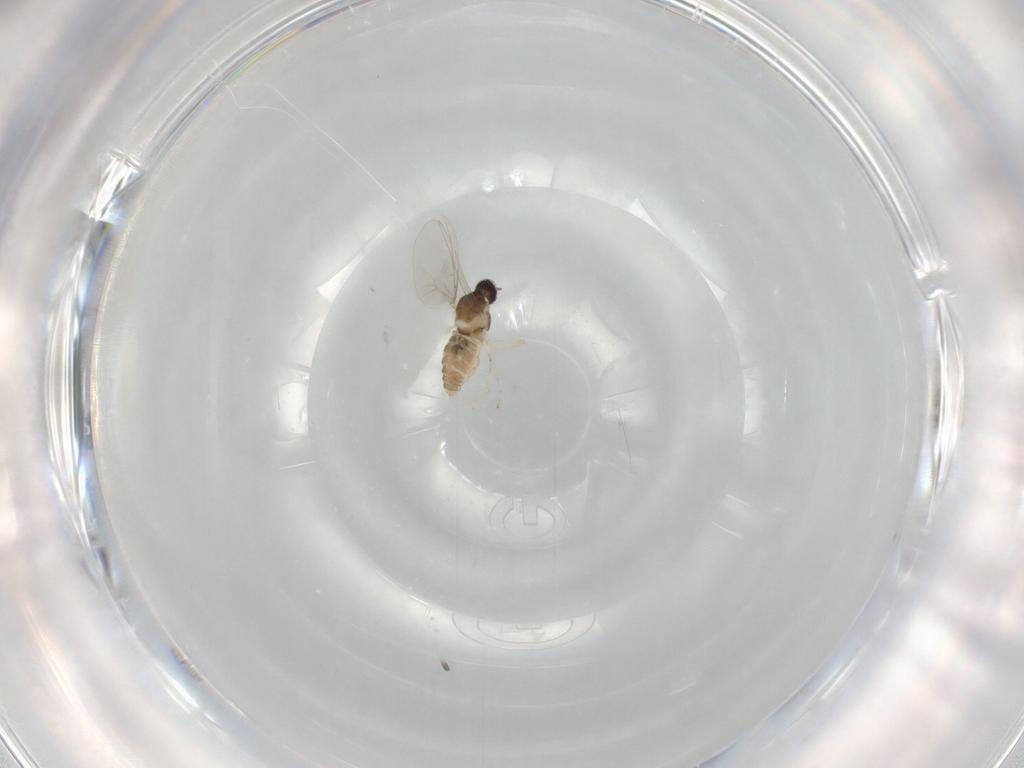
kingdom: Animalia
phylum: Arthropoda
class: Insecta
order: Diptera
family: Cecidomyiidae
